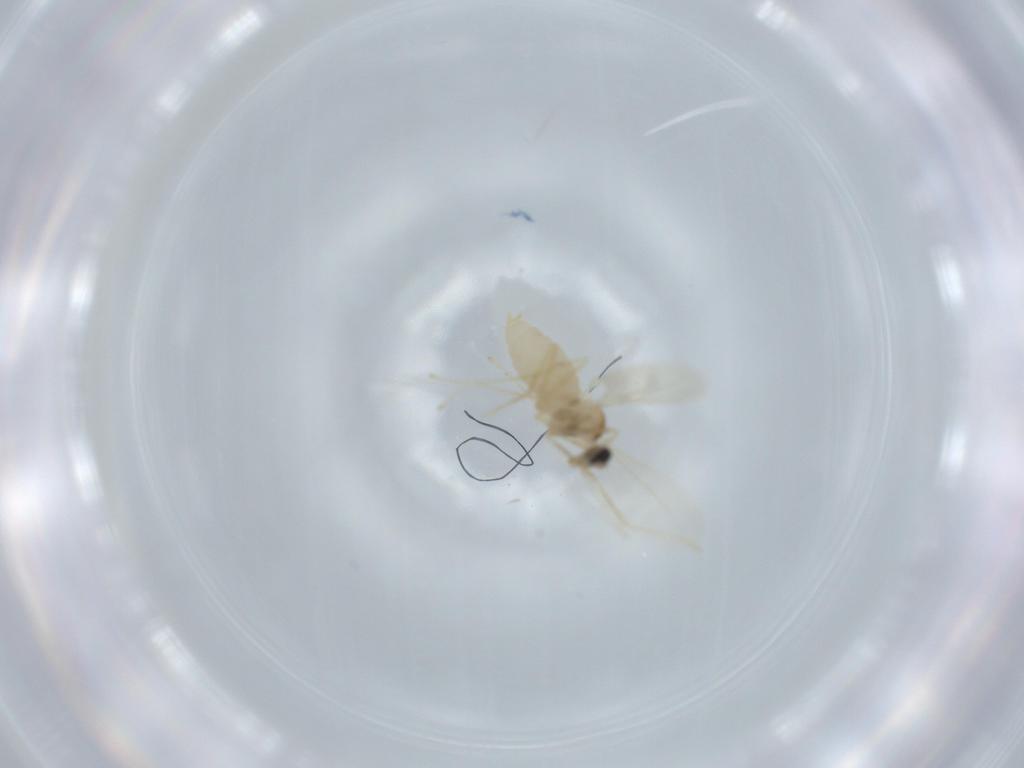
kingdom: Animalia
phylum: Arthropoda
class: Insecta
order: Diptera
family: Cecidomyiidae
